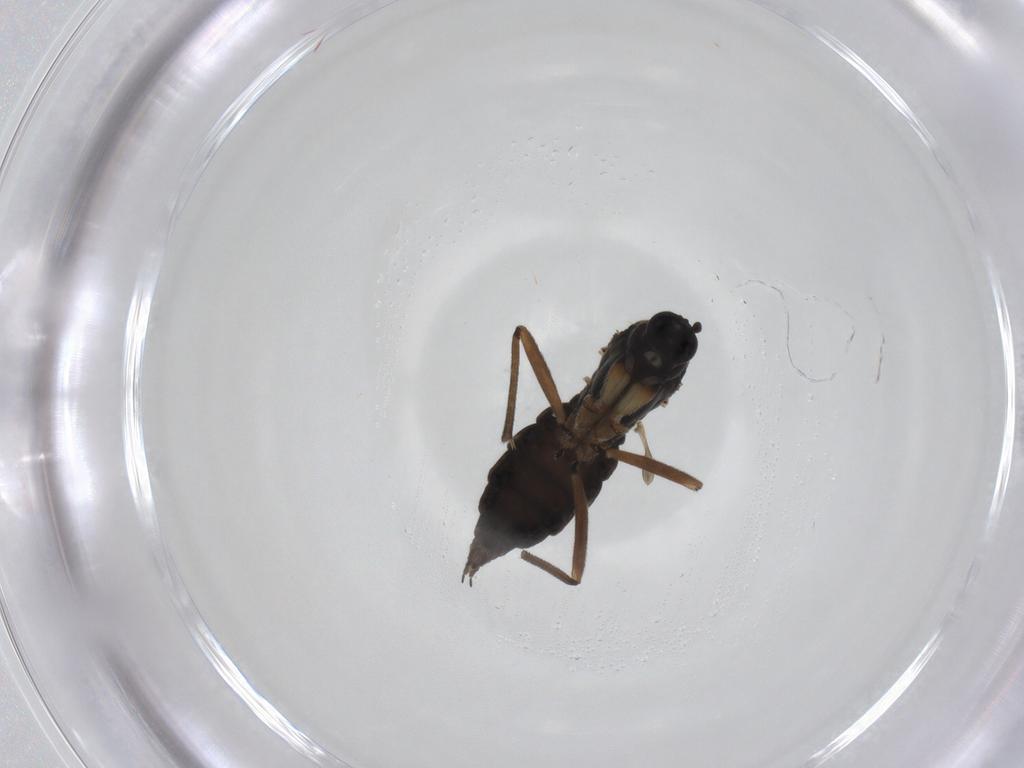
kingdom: Animalia
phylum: Arthropoda
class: Insecta
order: Diptera
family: Sciaridae
